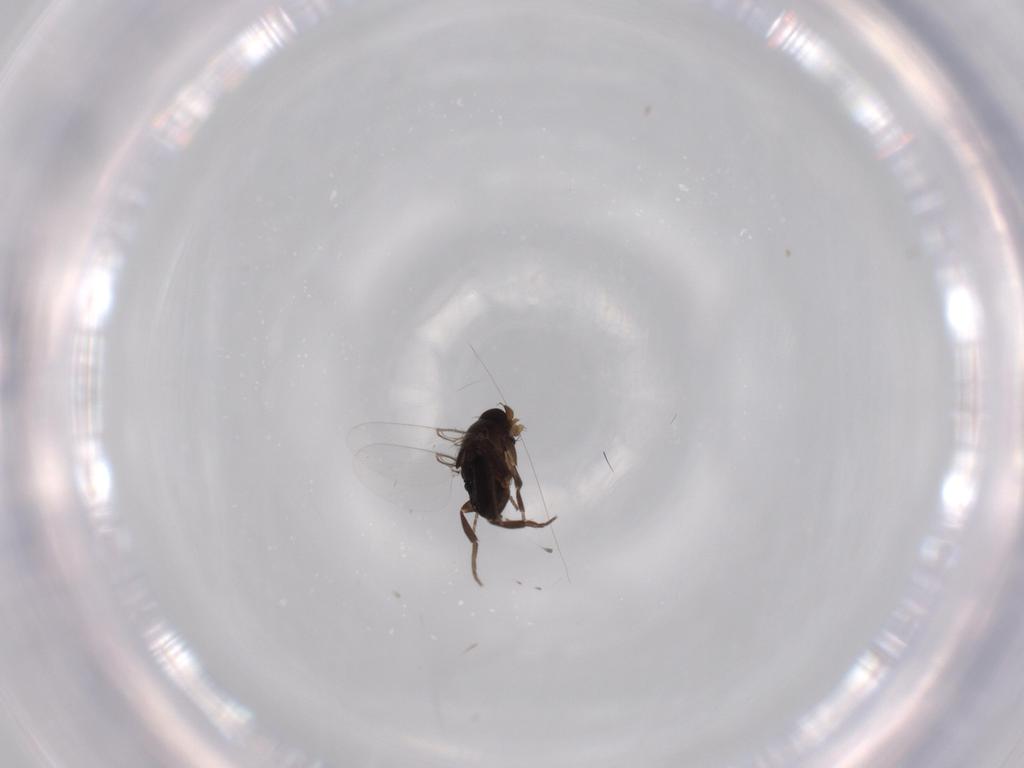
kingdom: Animalia
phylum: Arthropoda
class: Insecta
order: Diptera
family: Phoridae
